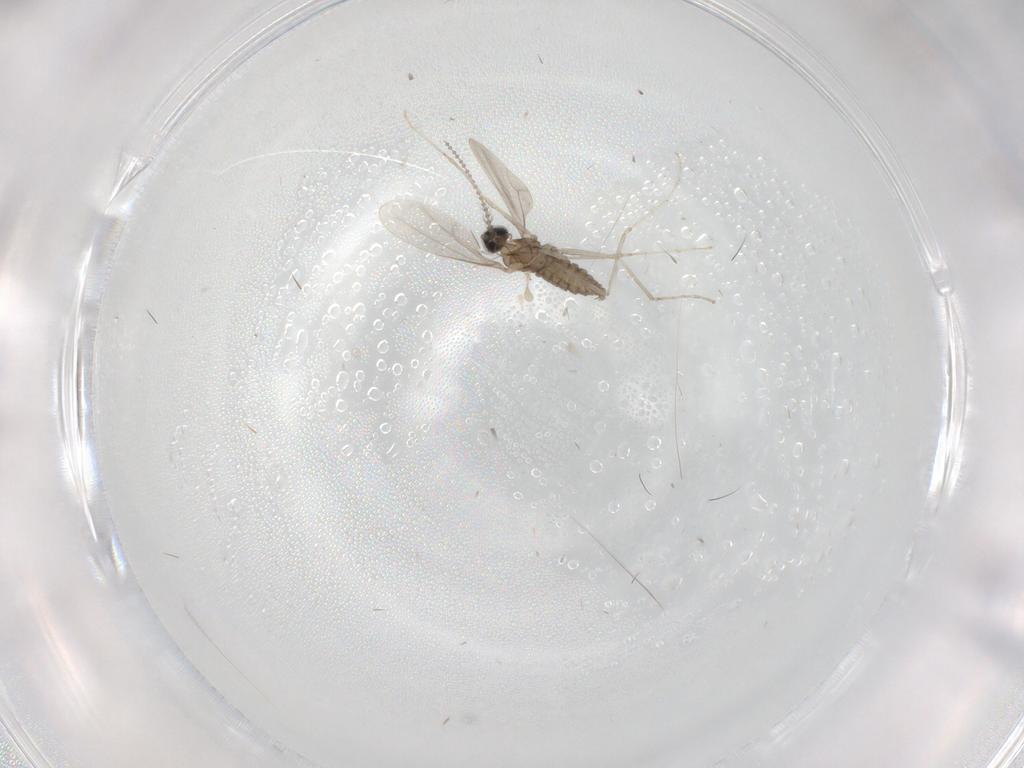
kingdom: Animalia
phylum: Arthropoda
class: Insecta
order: Diptera
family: Cecidomyiidae
